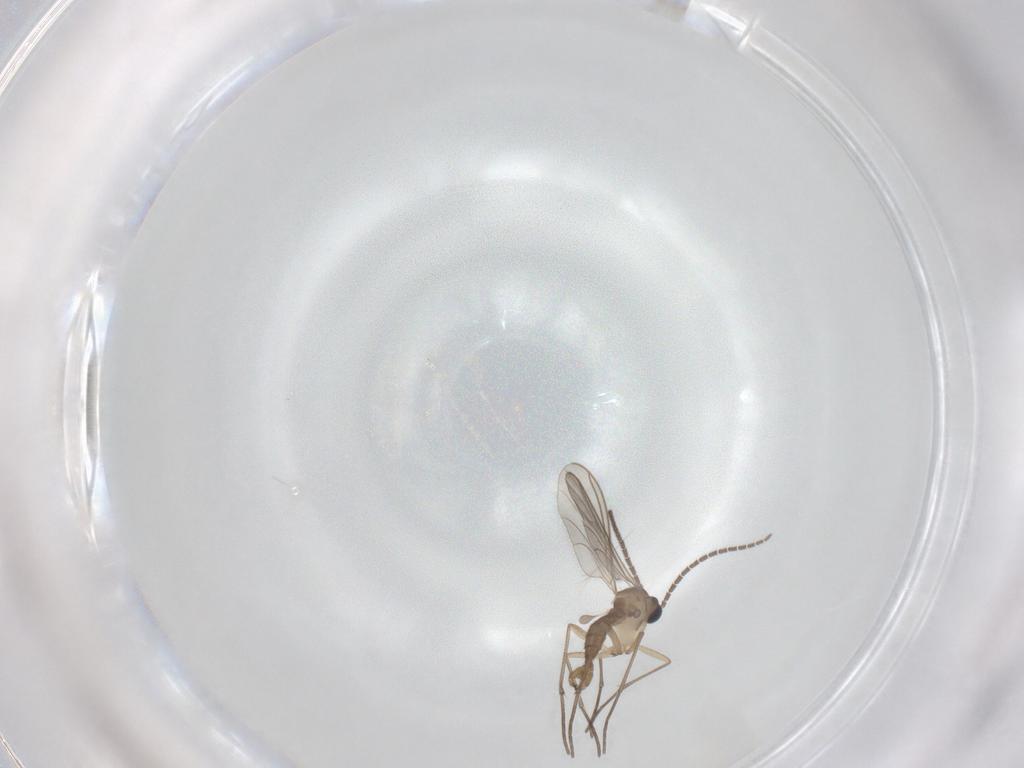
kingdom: Animalia
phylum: Arthropoda
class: Insecta
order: Diptera
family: Sciaridae
